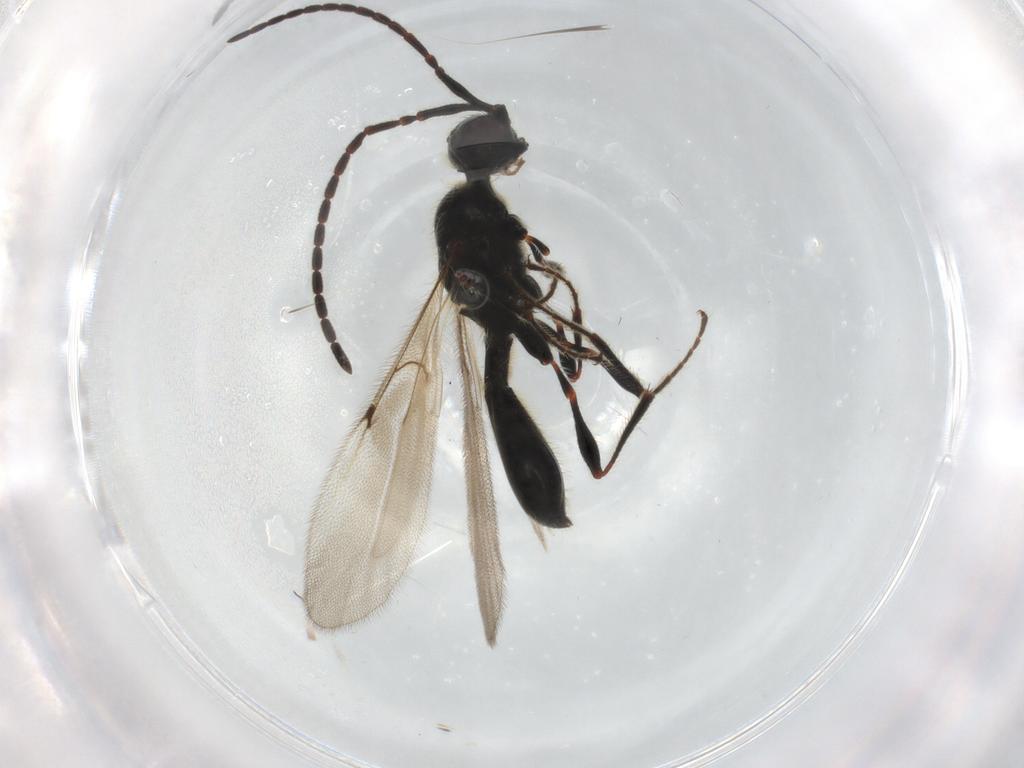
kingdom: Animalia
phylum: Arthropoda
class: Insecta
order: Hymenoptera
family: Diapriidae
